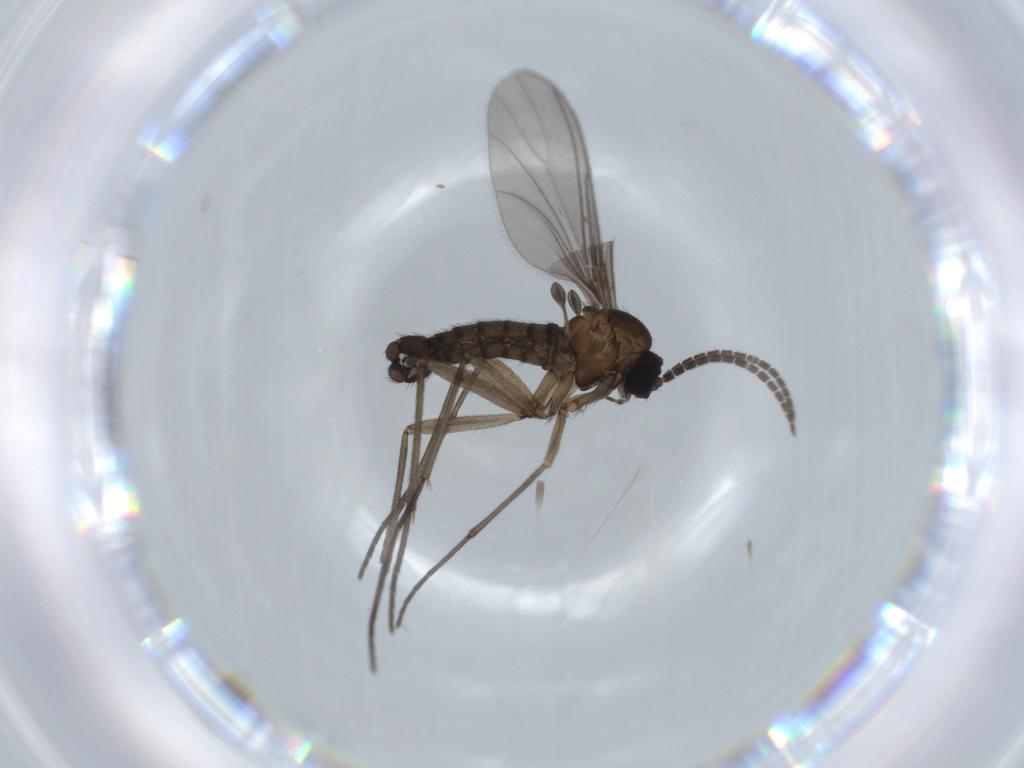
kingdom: Animalia
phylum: Arthropoda
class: Insecta
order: Diptera
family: Sciaridae
